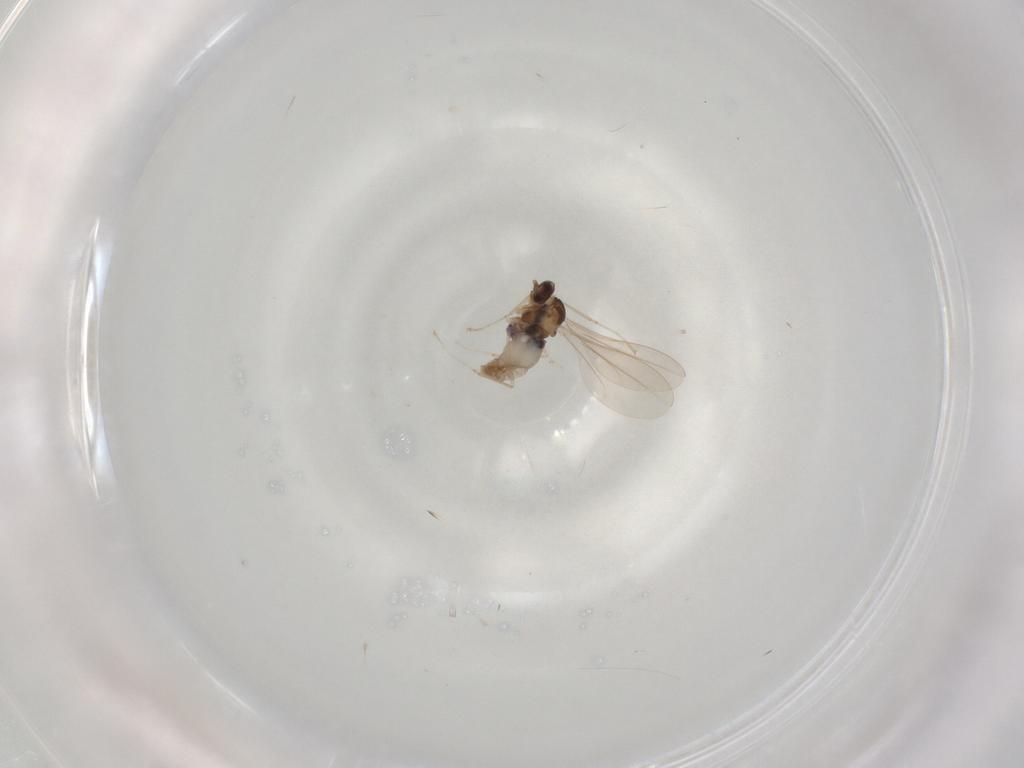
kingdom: Animalia
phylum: Arthropoda
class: Insecta
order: Diptera
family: Cecidomyiidae
